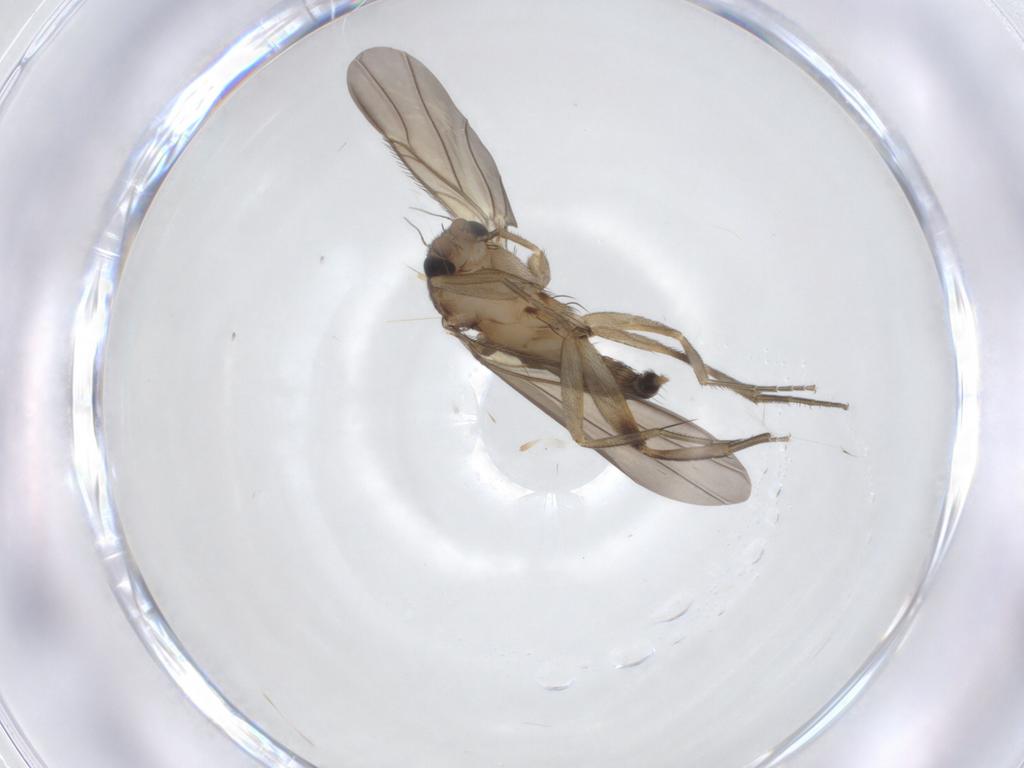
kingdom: Animalia
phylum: Arthropoda
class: Insecta
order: Diptera
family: Phoridae
